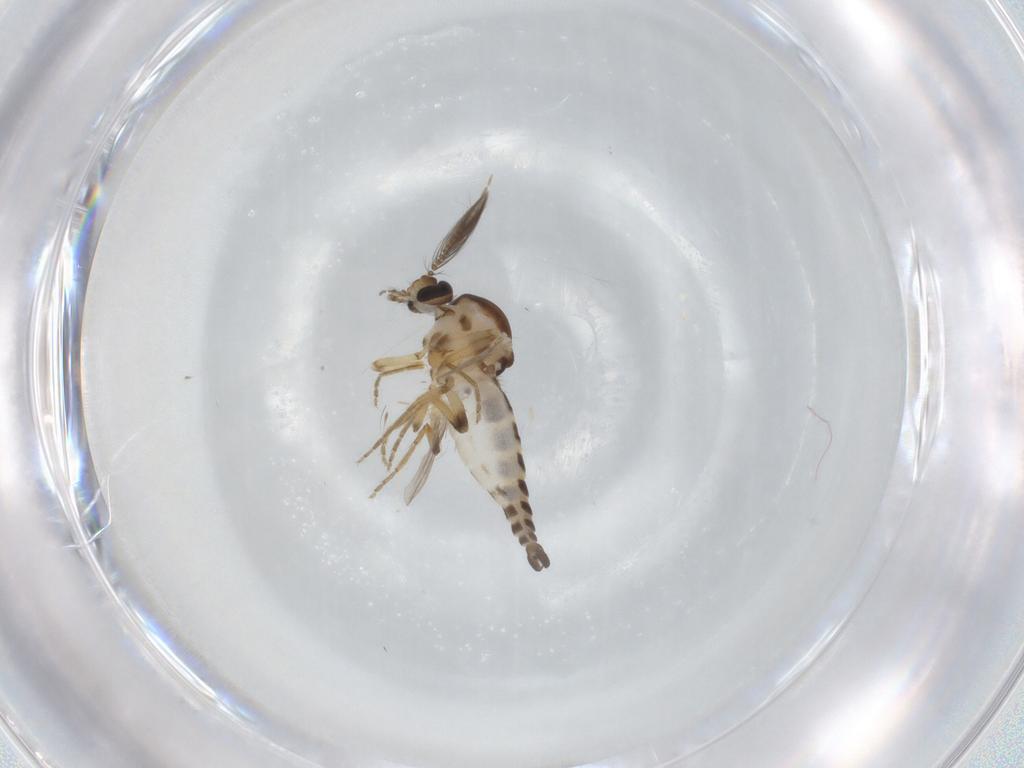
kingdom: Animalia
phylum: Arthropoda
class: Insecta
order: Diptera
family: Ceratopogonidae
